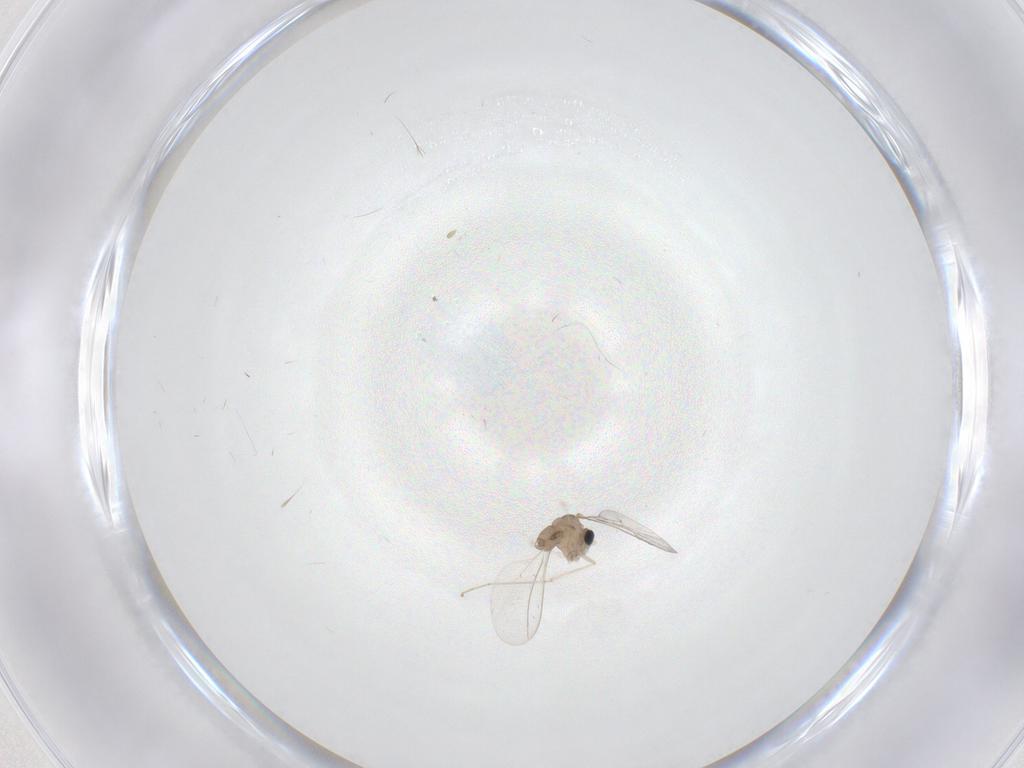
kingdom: Animalia
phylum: Arthropoda
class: Insecta
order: Diptera
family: Cecidomyiidae
